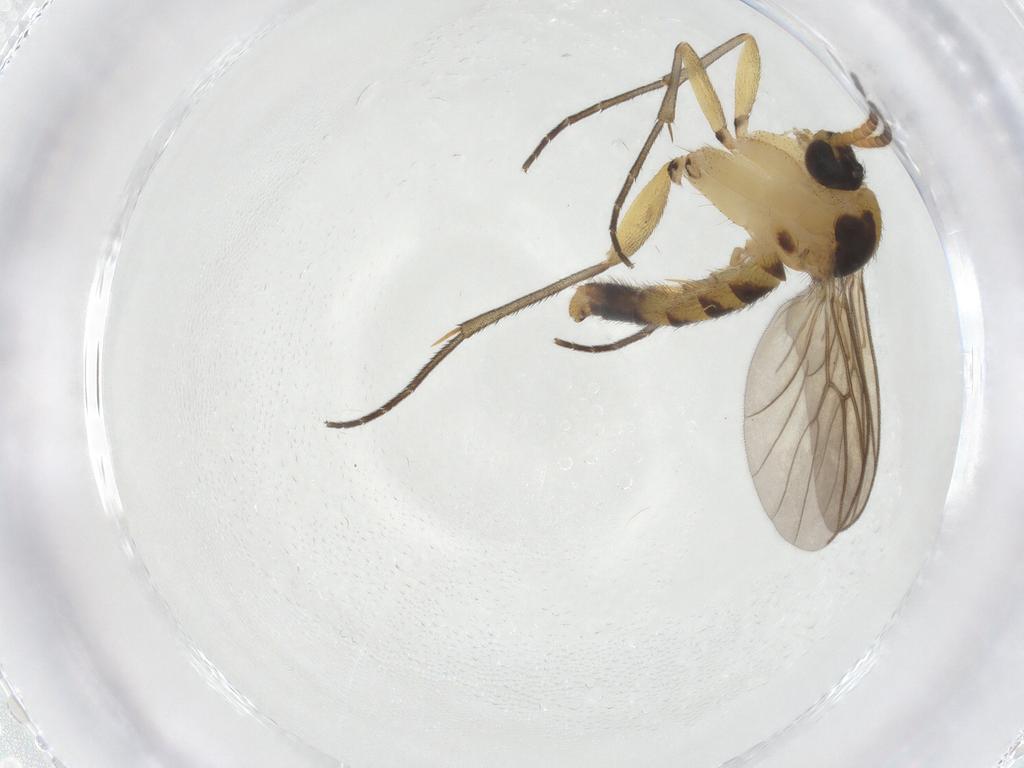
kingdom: Animalia
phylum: Arthropoda
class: Insecta
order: Diptera
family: Mycetophilidae
